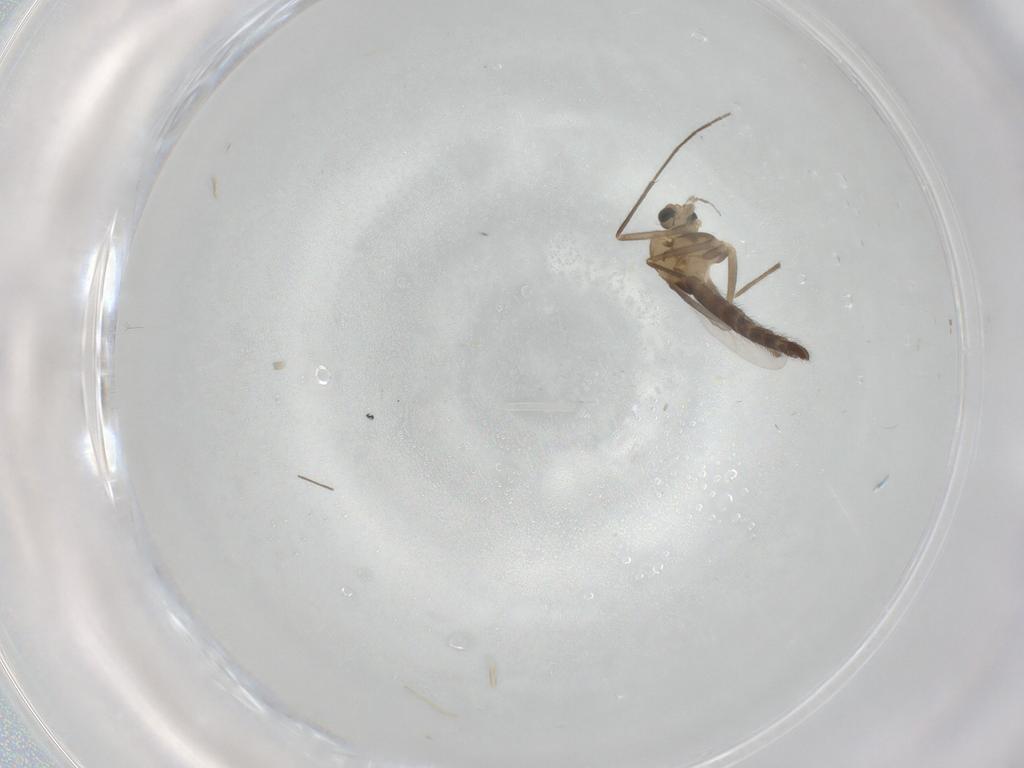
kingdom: Animalia
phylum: Arthropoda
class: Insecta
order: Diptera
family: Chironomidae
